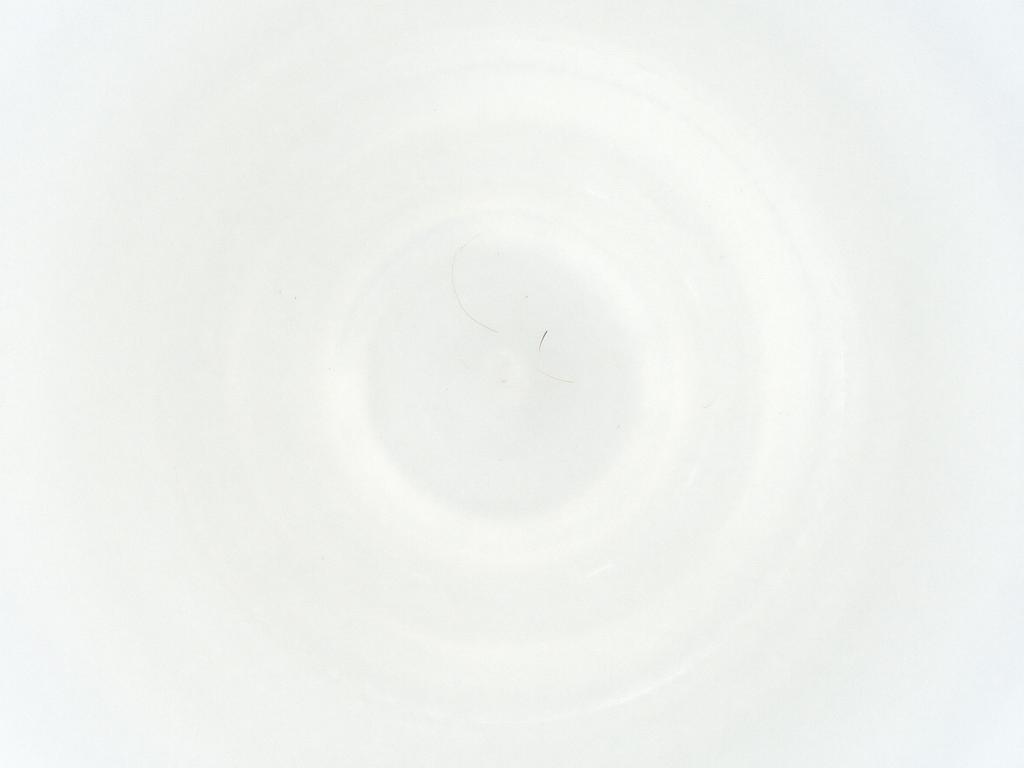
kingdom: Animalia
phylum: Arthropoda
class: Arachnida
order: Trombidiformes
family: Anystidae
